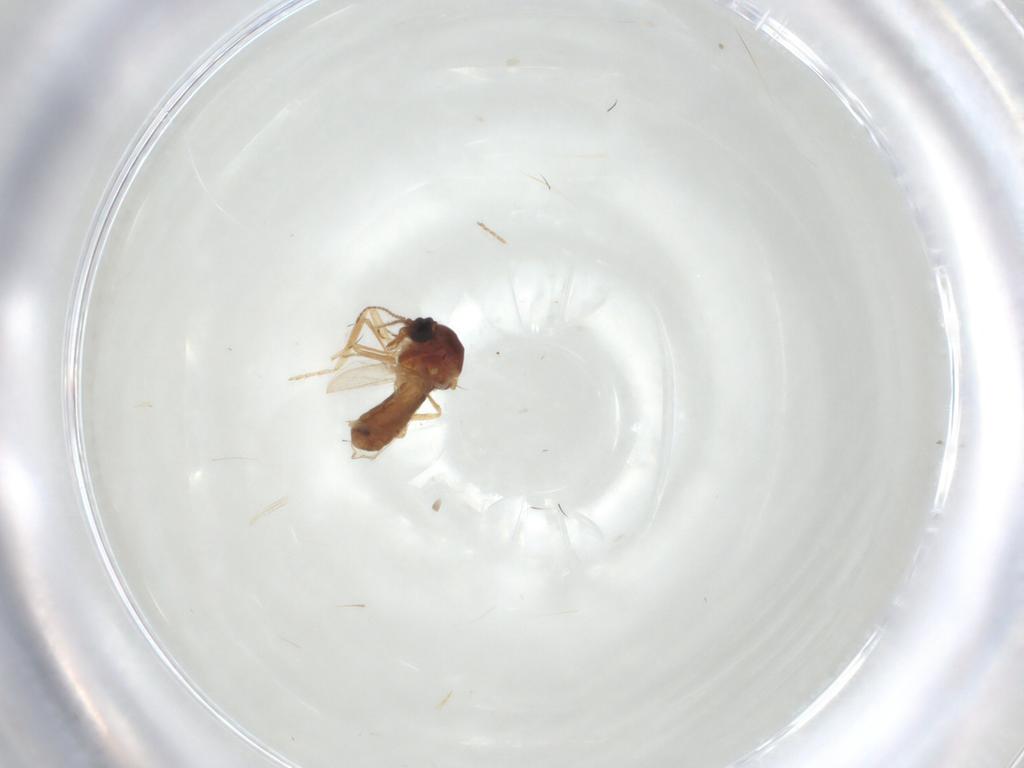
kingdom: Animalia
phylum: Arthropoda
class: Insecta
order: Diptera
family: Ceratopogonidae
